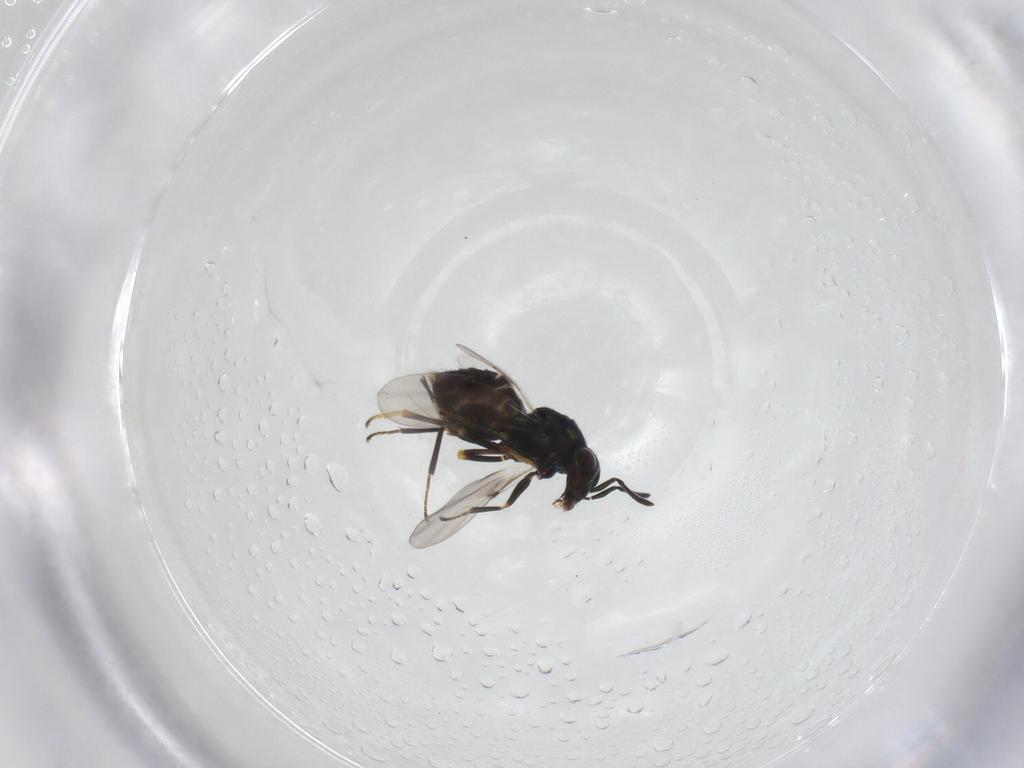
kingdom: Animalia
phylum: Arthropoda
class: Insecta
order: Hymenoptera
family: Encyrtidae
